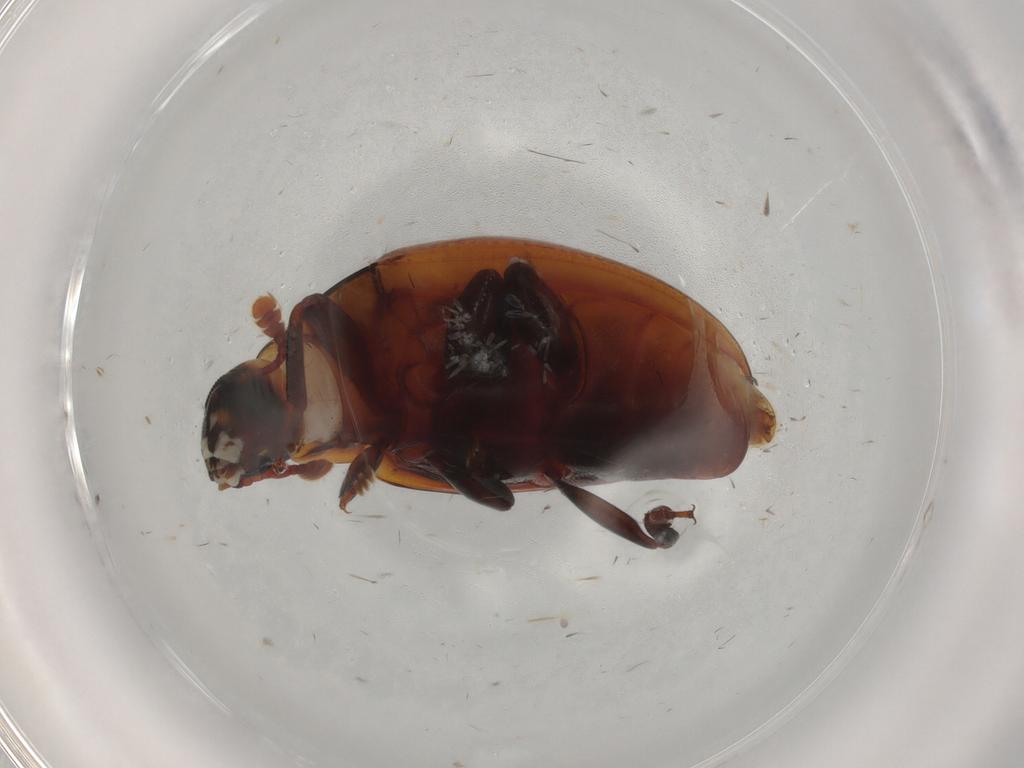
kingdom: Animalia
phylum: Arthropoda
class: Insecta
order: Coleoptera
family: Zopheridae
